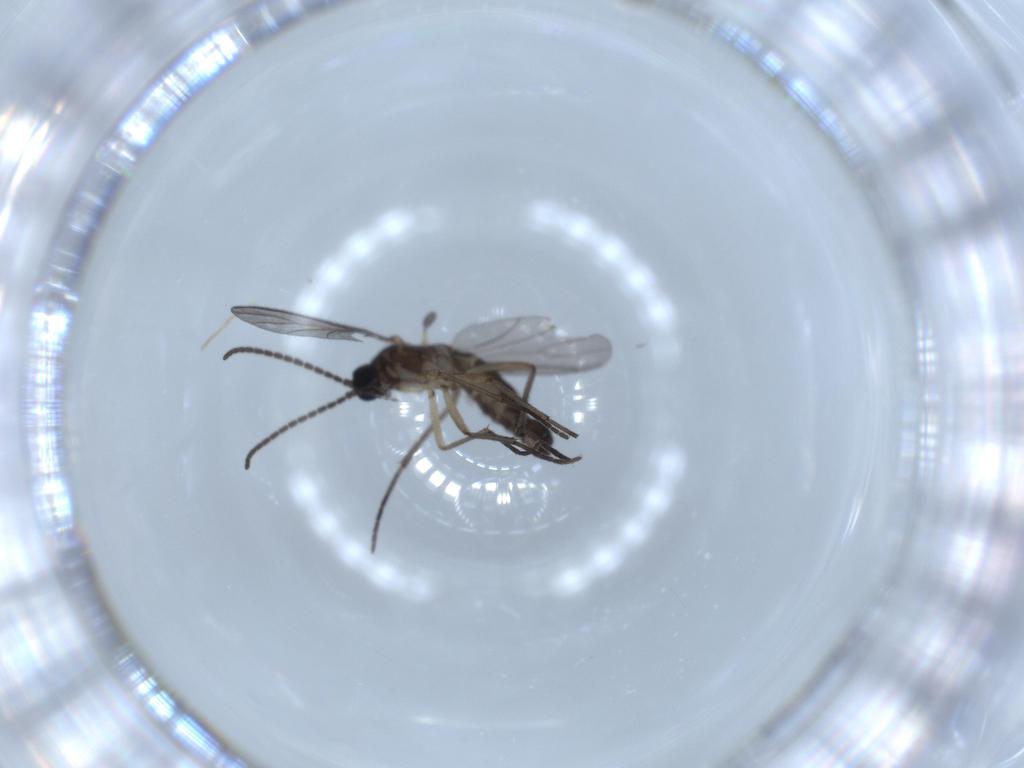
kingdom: Animalia
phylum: Arthropoda
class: Insecta
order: Diptera
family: Sciaridae
